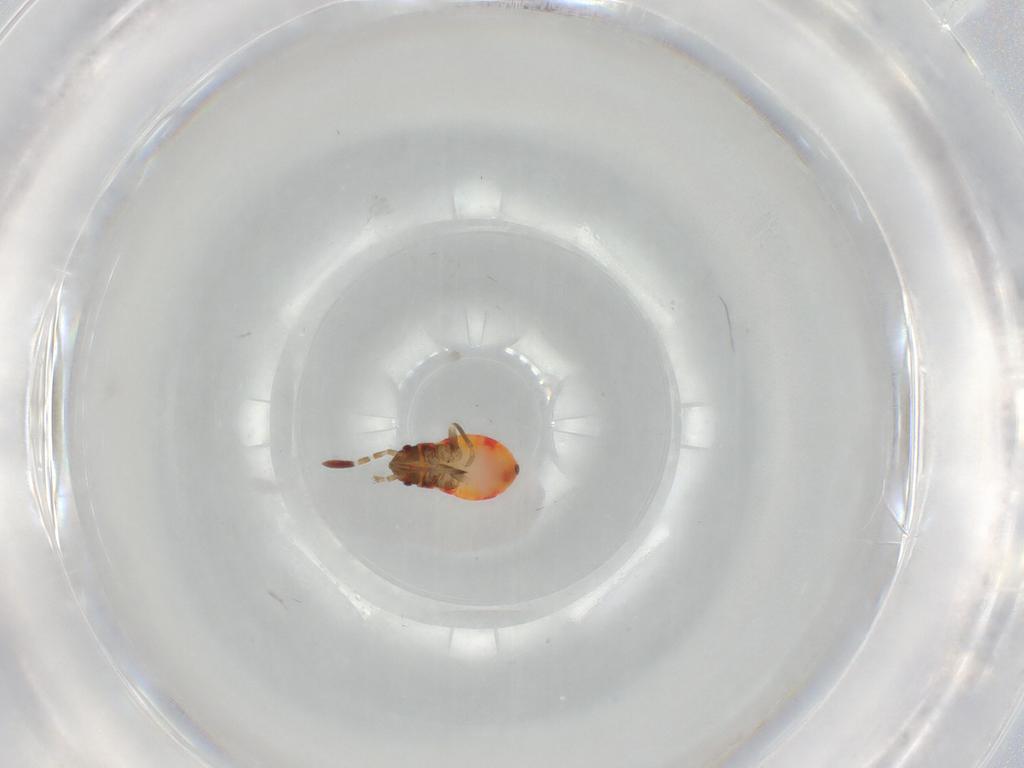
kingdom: Animalia
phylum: Arthropoda
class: Insecta
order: Hemiptera
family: Rhyparochromidae
